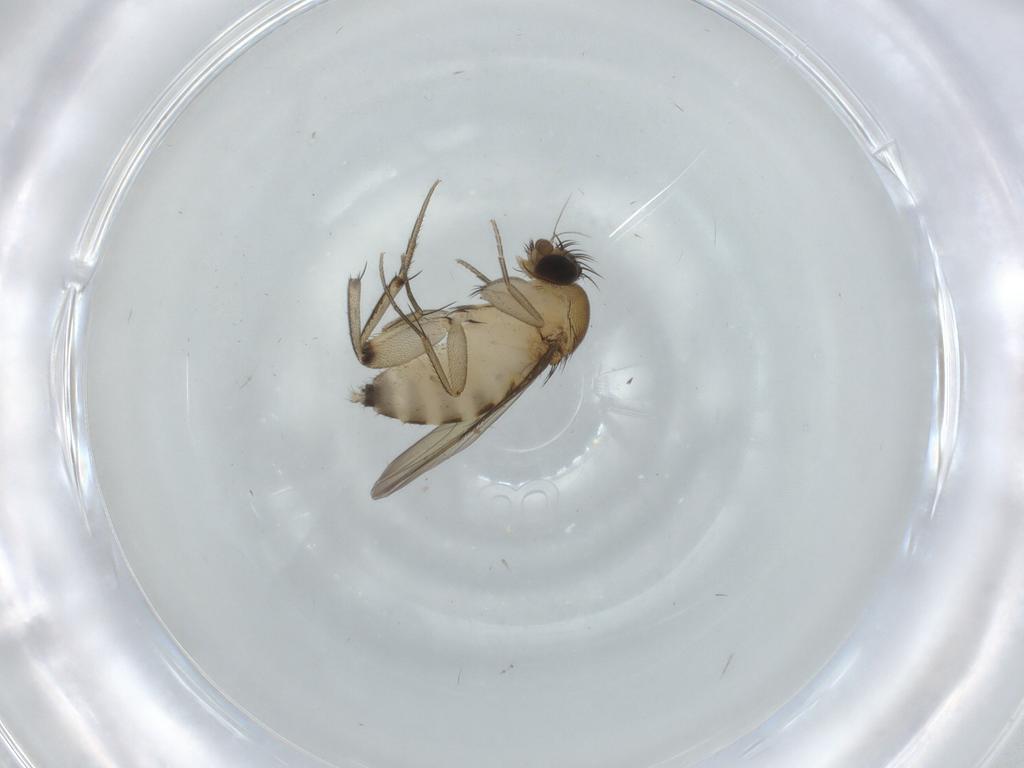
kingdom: Animalia
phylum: Arthropoda
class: Insecta
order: Diptera
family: Phoridae
